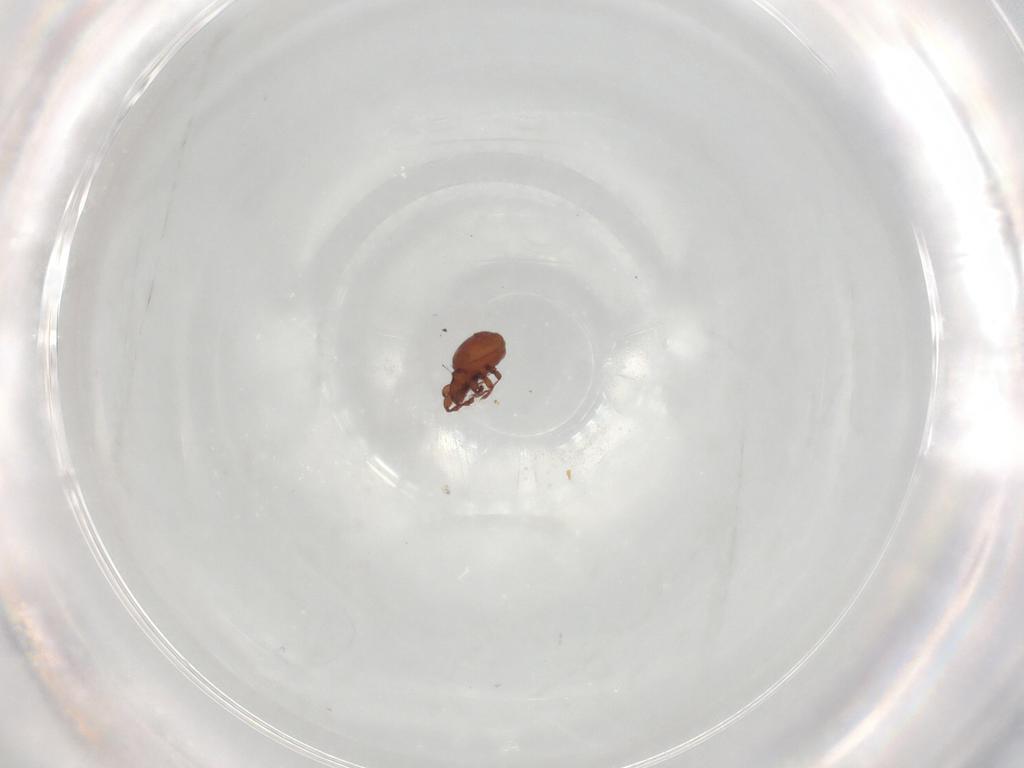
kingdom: Animalia
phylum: Arthropoda
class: Arachnida
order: Sarcoptiformes
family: Eremaeidae
